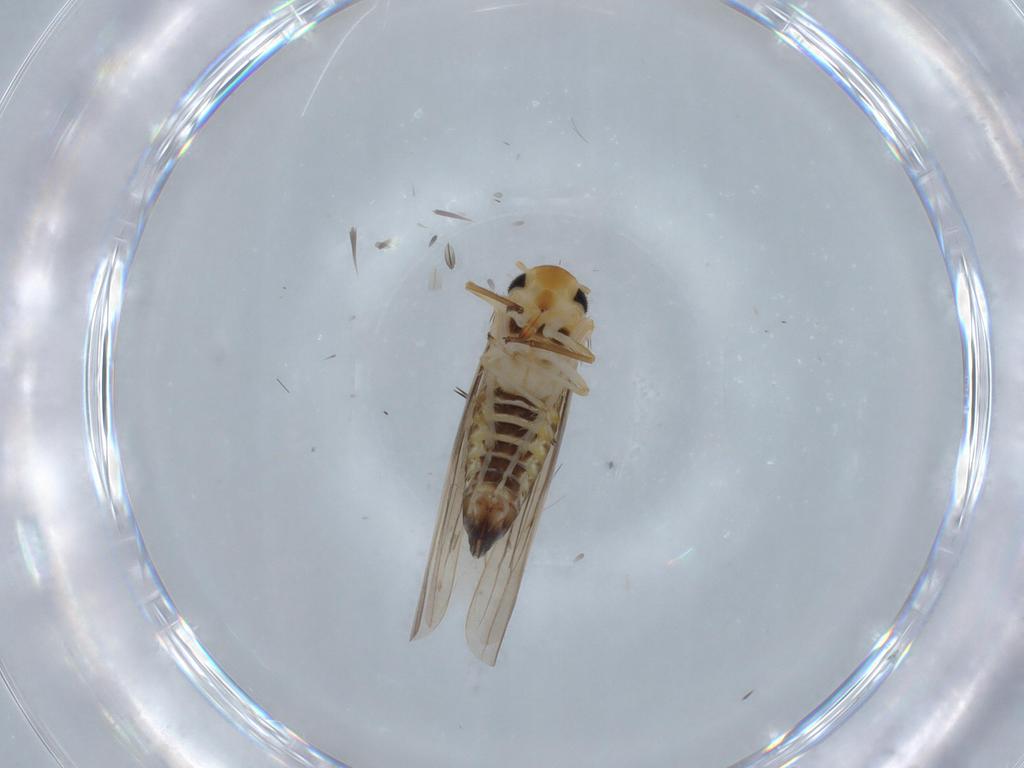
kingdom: Animalia
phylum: Arthropoda
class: Insecta
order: Hemiptera
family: Cicadellidae
